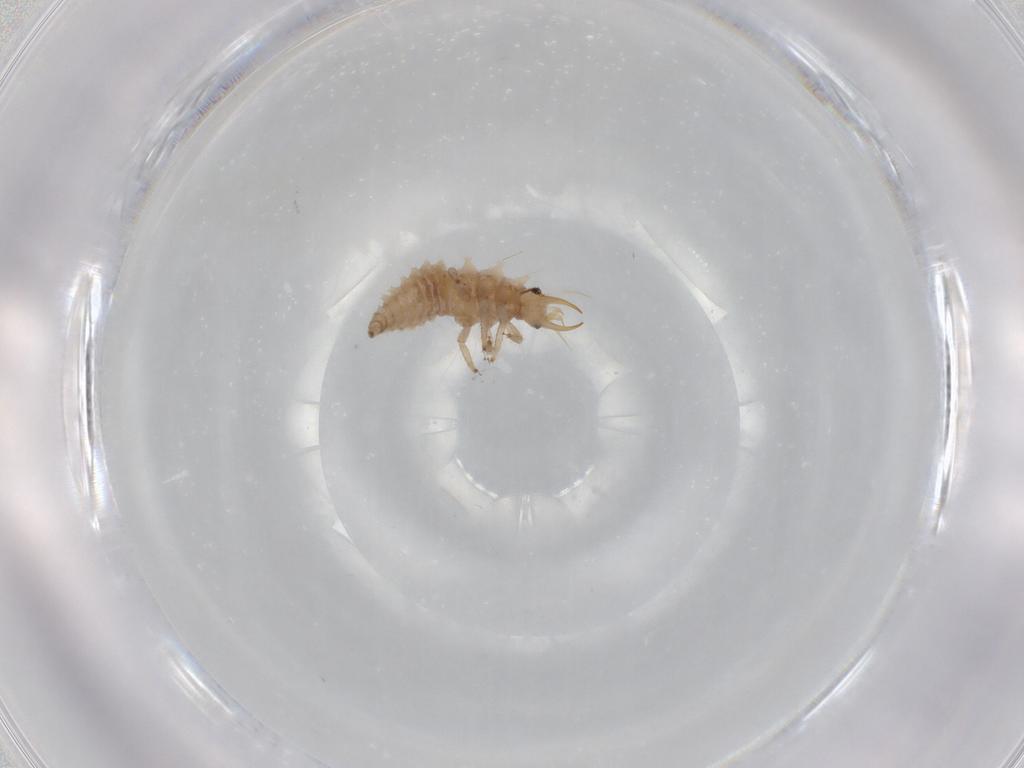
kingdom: Animalia
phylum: Arthropoda
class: Insecta
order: Neuroptera
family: Chrysopidae
